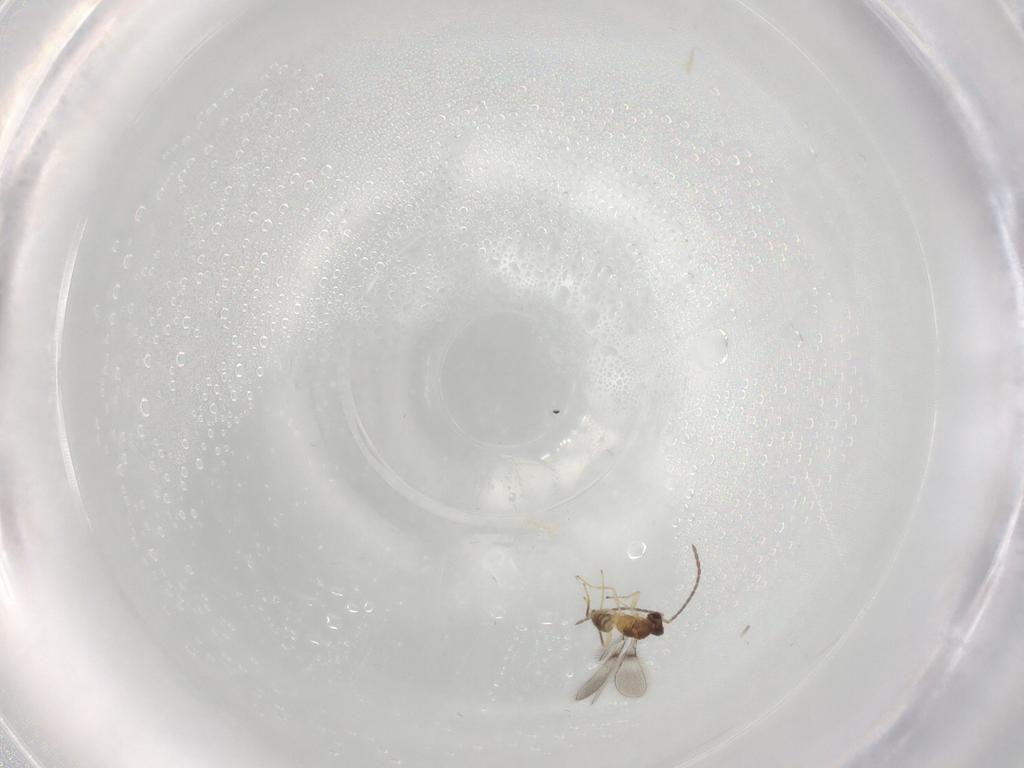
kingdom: Animalia
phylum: Arthropoda
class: Insecta
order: Hymenoptera
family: Mymaridae
